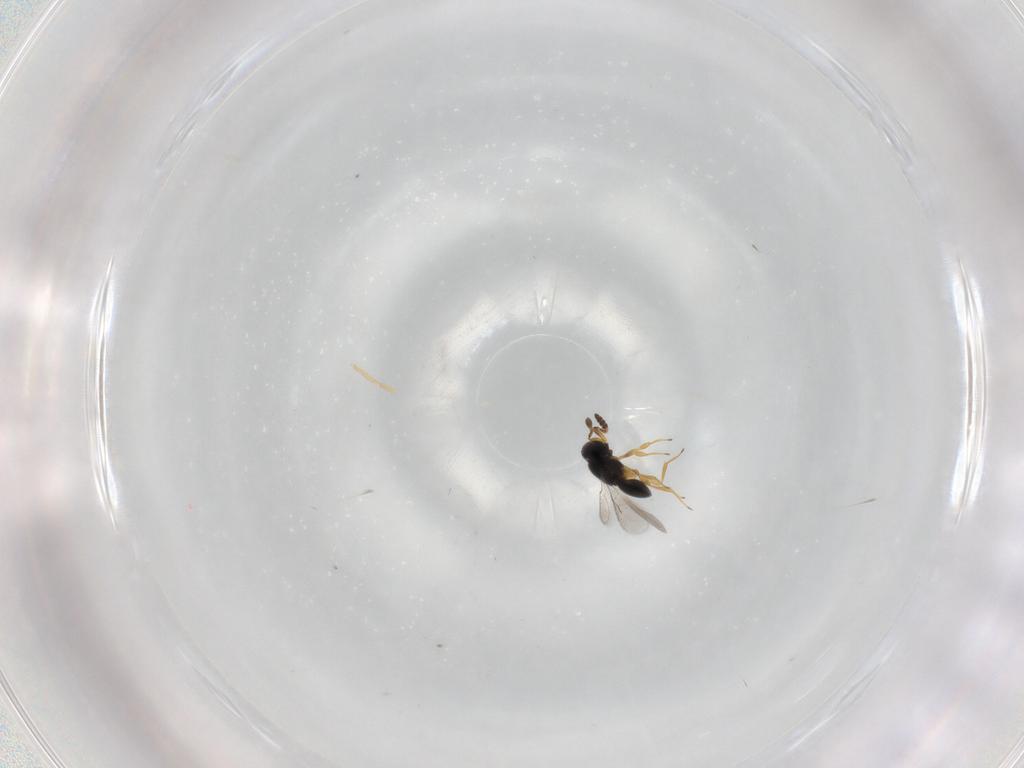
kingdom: Animalia
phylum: Arthropoda
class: Insecta
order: Hymenoptera
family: Scelionidae
